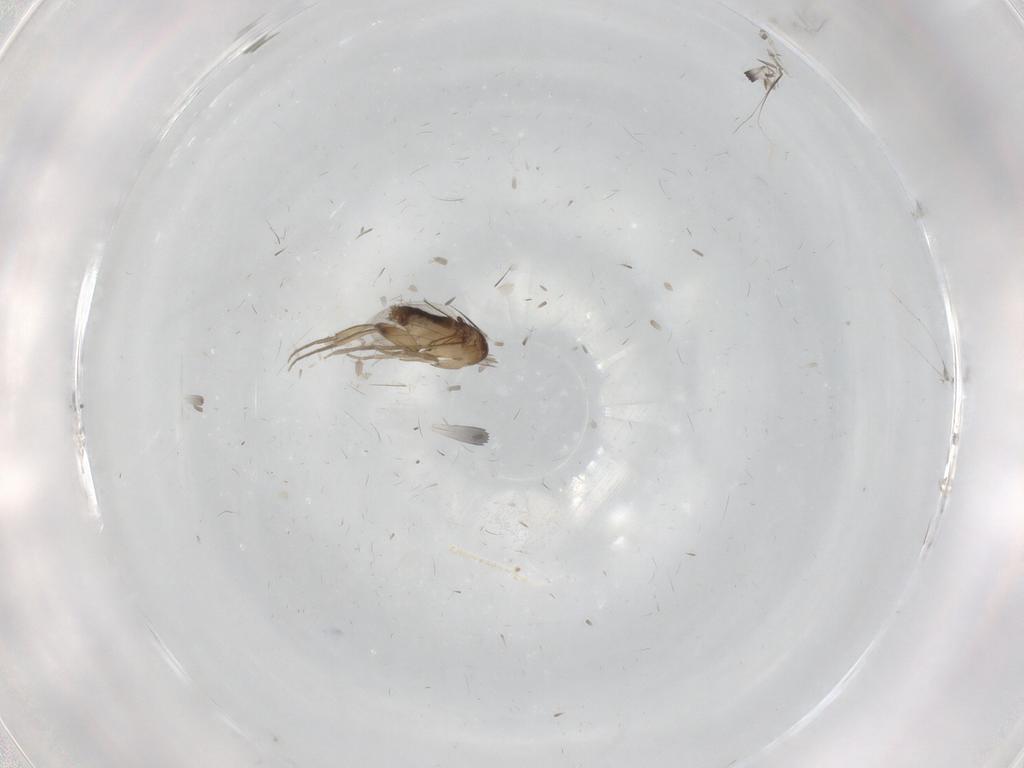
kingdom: Animalia
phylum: Arthropoda
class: Insecta
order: Diptera
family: Phoridae
